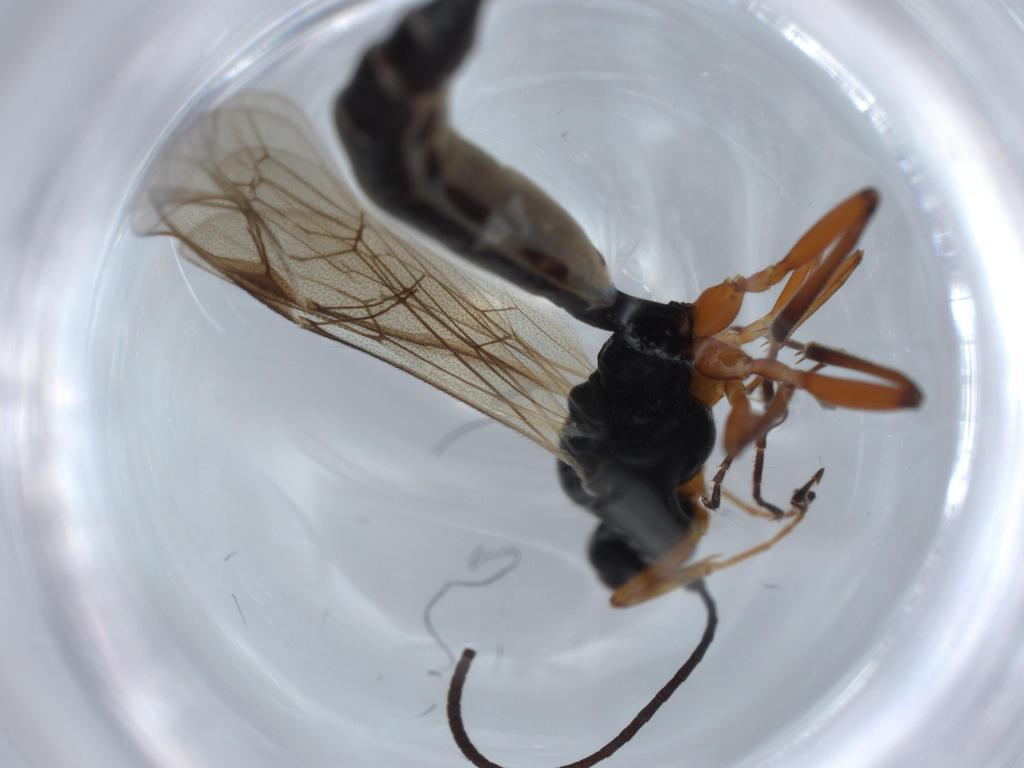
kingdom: Animalia
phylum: Arthropoda
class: Insecta
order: Hymenoptera
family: Ichneumonidae
